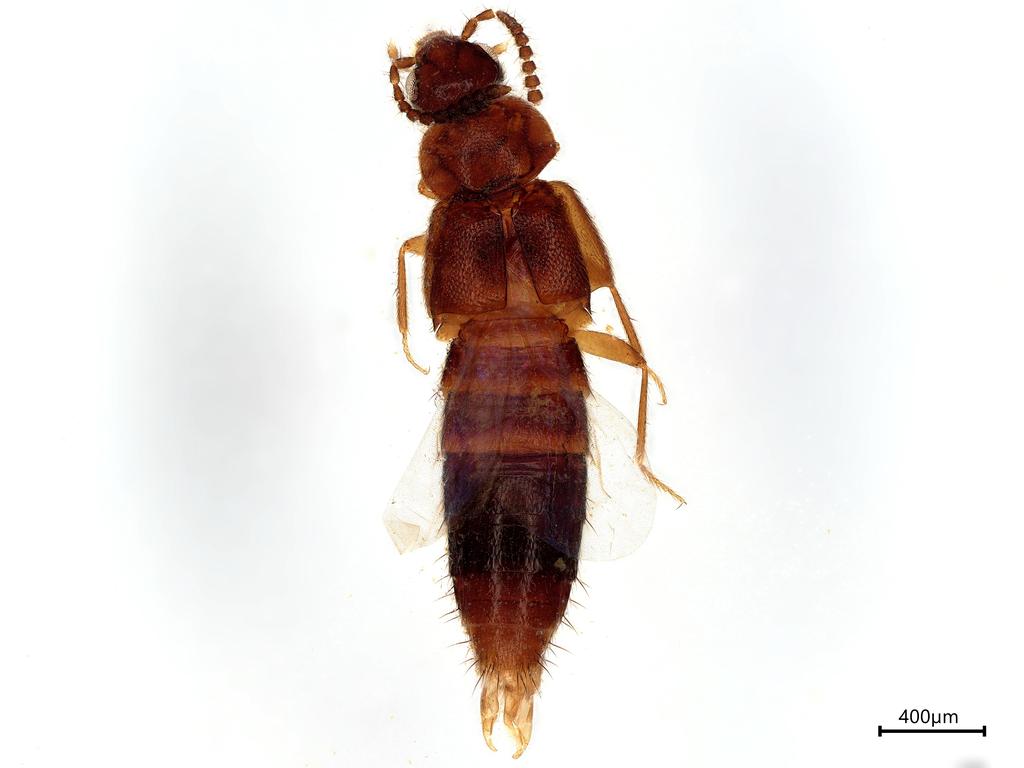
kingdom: Animalia
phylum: Arthropoda
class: Insecta
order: Coleoptera
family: Staphylinidae
